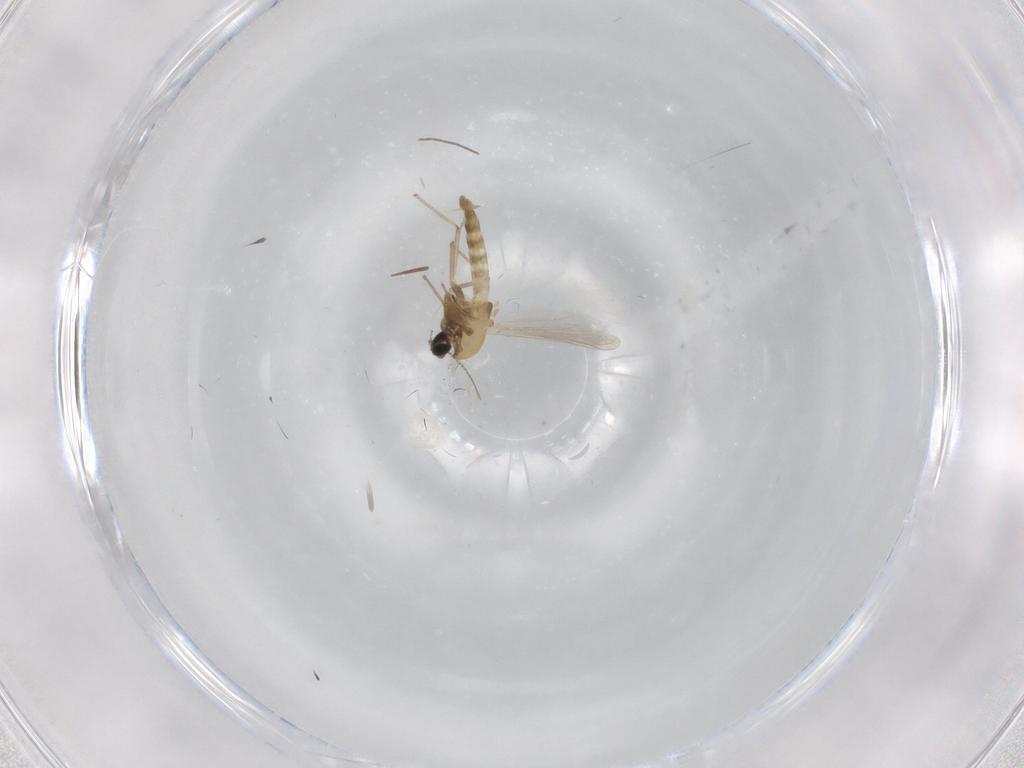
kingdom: Animalia
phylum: Arthropoda
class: Insecta
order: Diptera
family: Chironomidae
